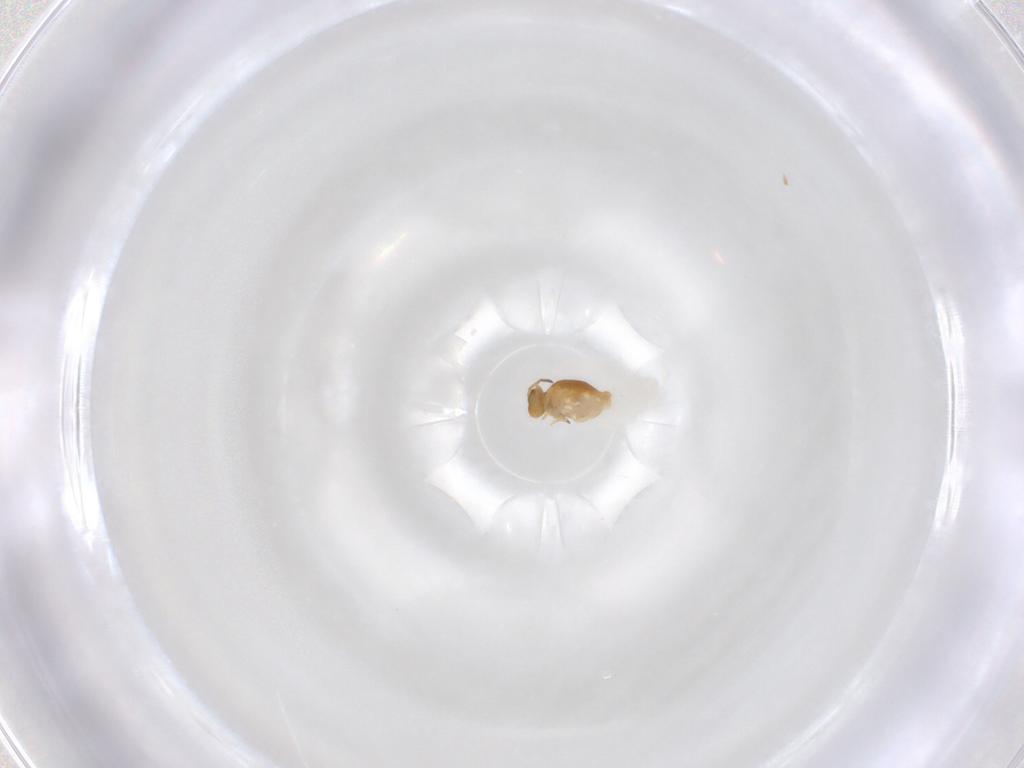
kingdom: Animalia
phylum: Arthropoda
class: Collembola
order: Symphypleona
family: Katiannidae
